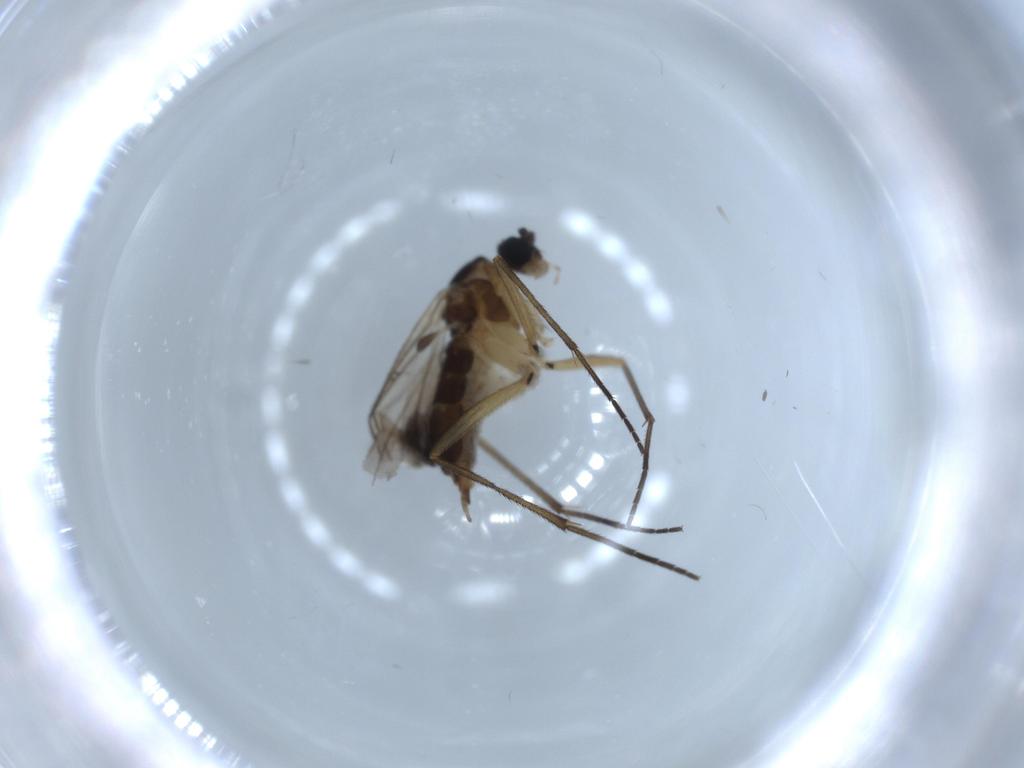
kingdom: Animalia
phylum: Arthropoda
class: Insecta
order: Diptera
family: Sciaridae
